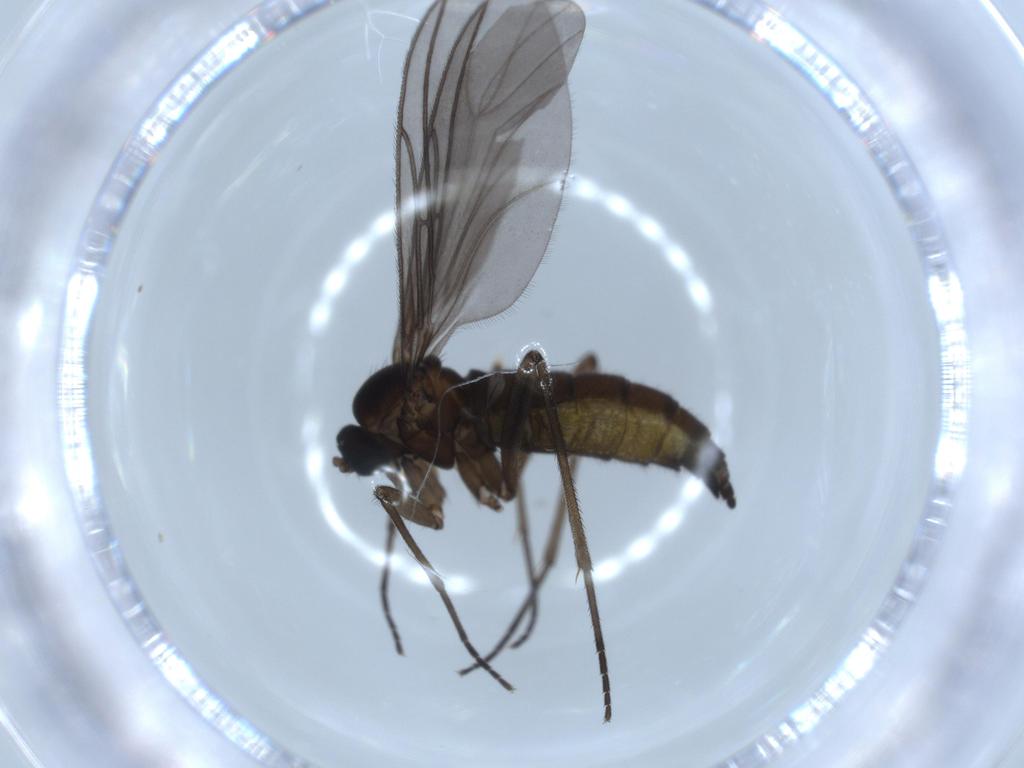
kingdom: Animalia
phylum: Arthropoda
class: Insecta
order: Diptera
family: Sciaridae
